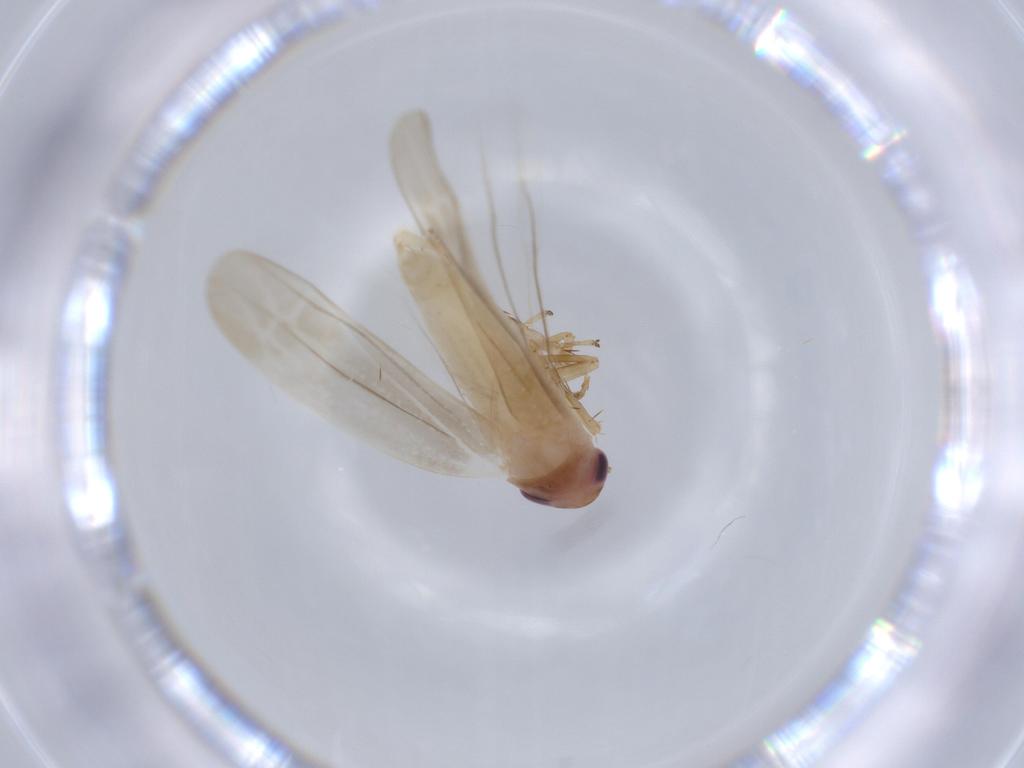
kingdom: Animalia
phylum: Arthropoda
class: Insecta
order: Hemiptera
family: Cicadellidae
